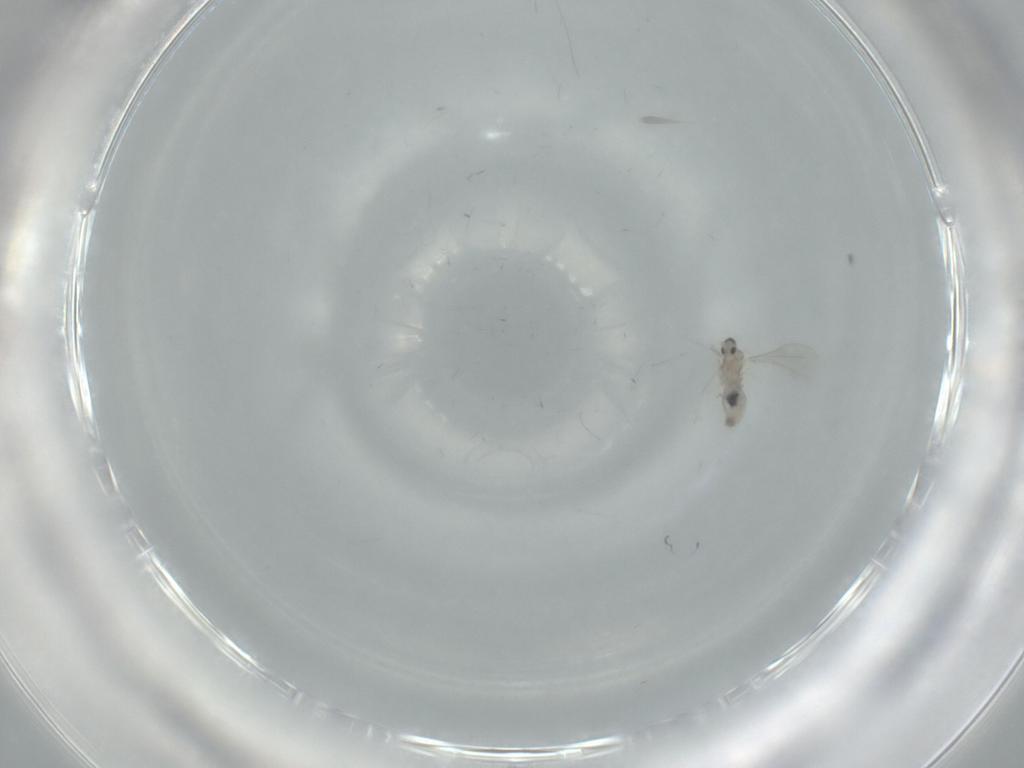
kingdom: Animalia
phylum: Arthropoda
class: Insecta
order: Diptera
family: Cecidomyiidae
